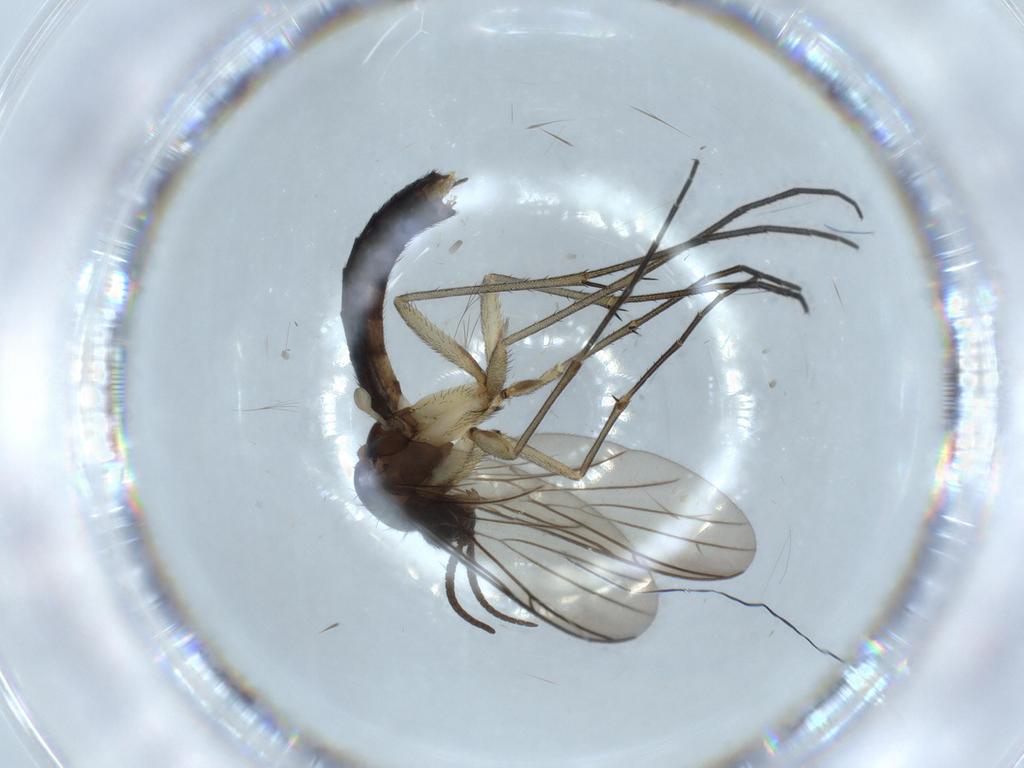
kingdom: Animalia
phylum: Arthropoda
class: Insecta
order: Diptera
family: Keroplatidae
